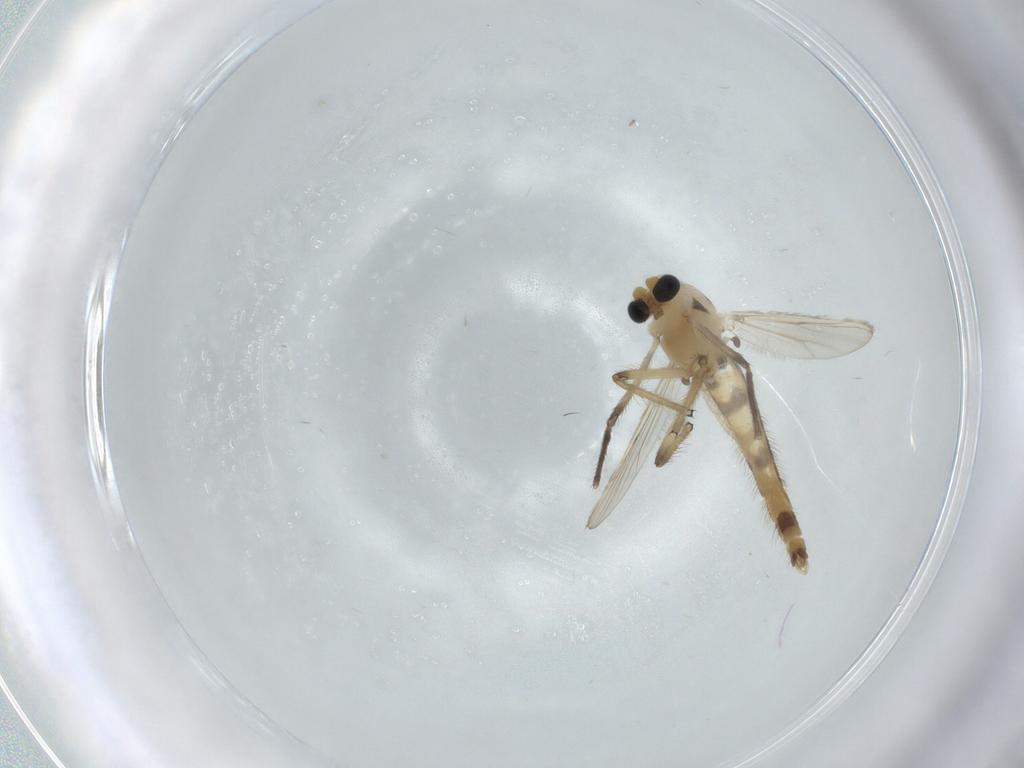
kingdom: Animalia
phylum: Arthropoda
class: Insecta
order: Diptera
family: Chironomidae
